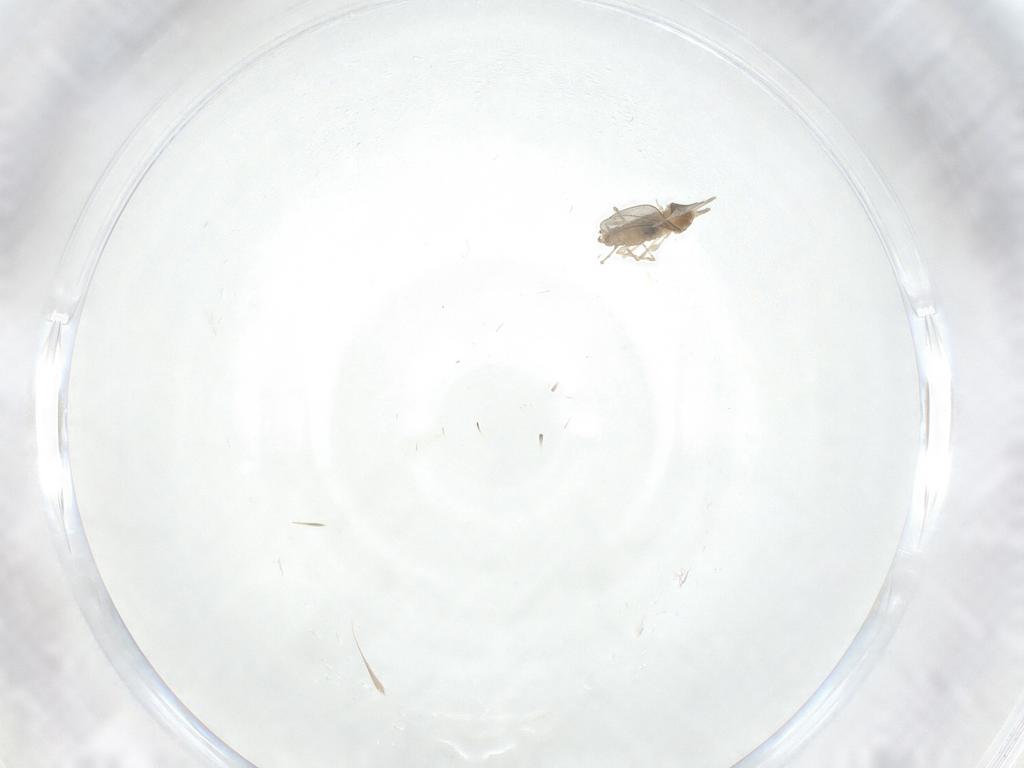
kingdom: Animalia
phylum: Arthropoda
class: Insecta
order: Diptera
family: Cecidomyiidae
